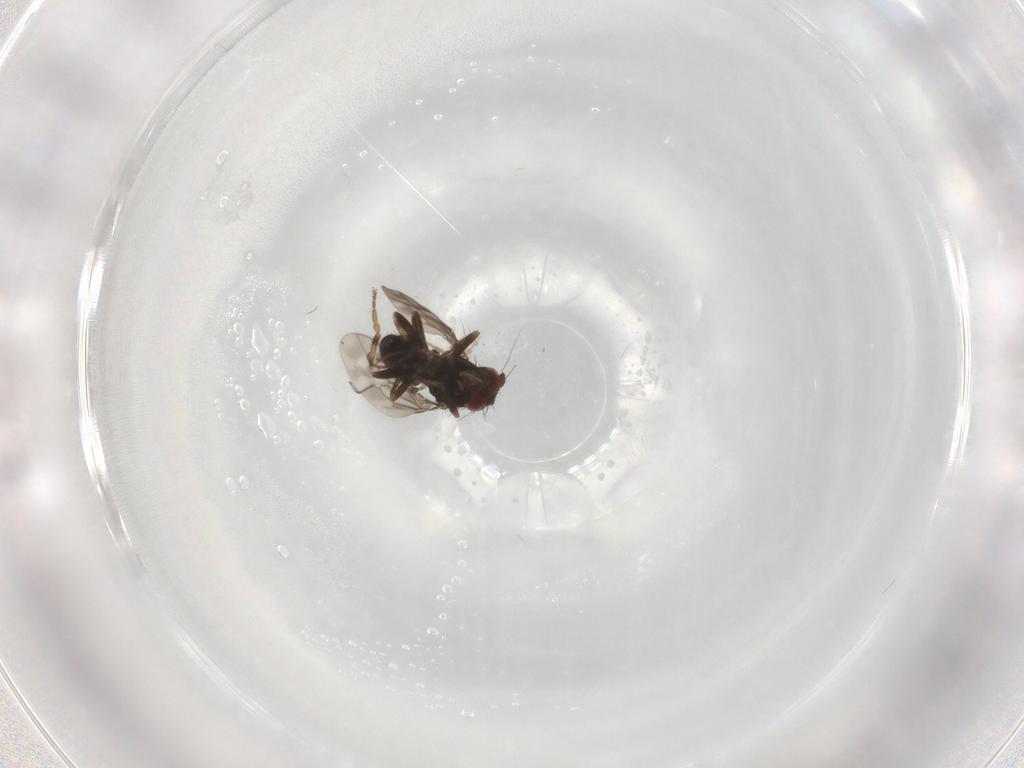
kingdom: Animalia
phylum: Arthropoda
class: Insecta
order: Diptera
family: Sphaeroceridae
